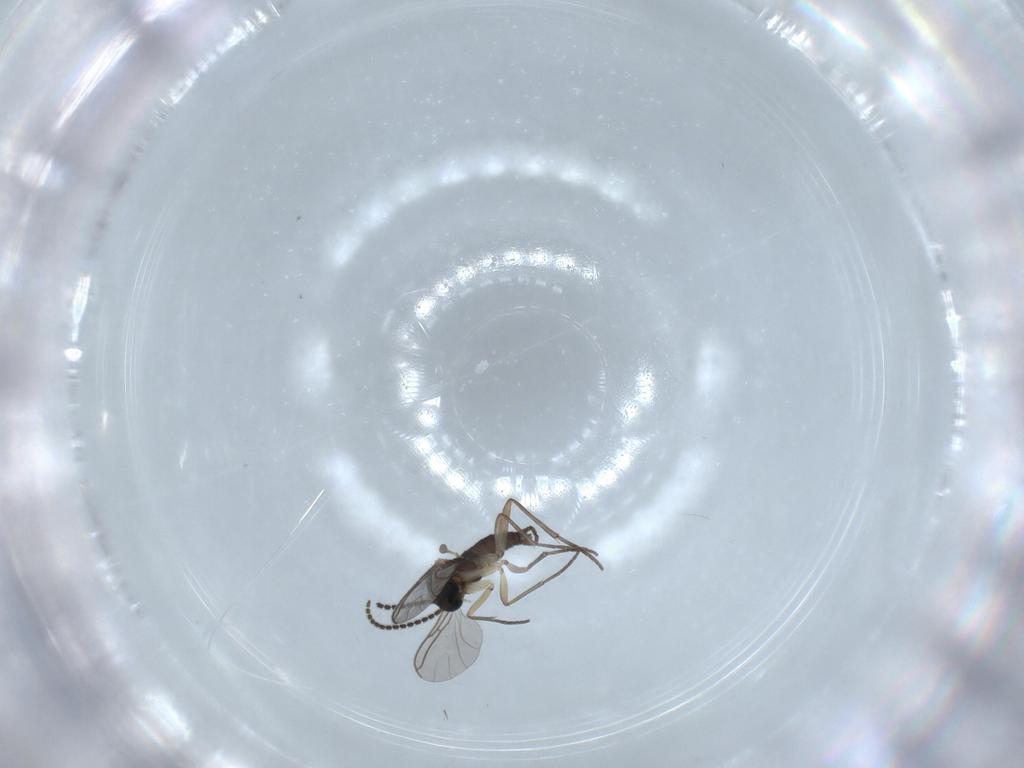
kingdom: Animalia
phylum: Arthropoda
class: Insecta
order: Diptera
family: Sciaridae
